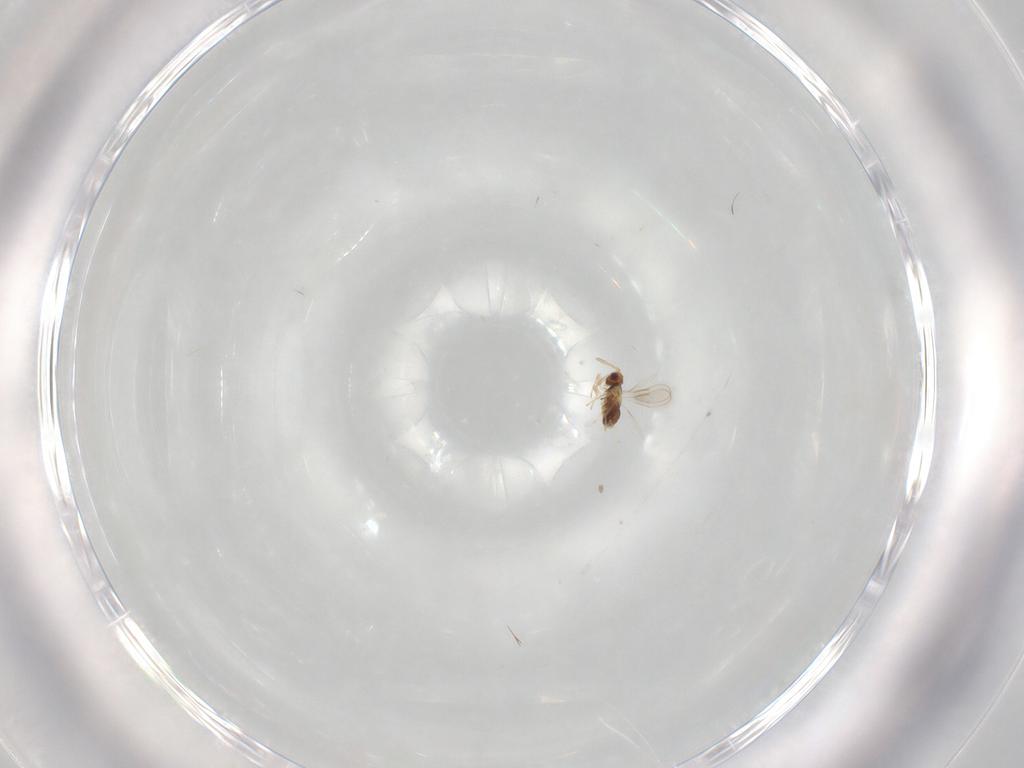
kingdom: Animalia
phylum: Arthropoda
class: Insecta
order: Hymenoptera
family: Aphelinidae
